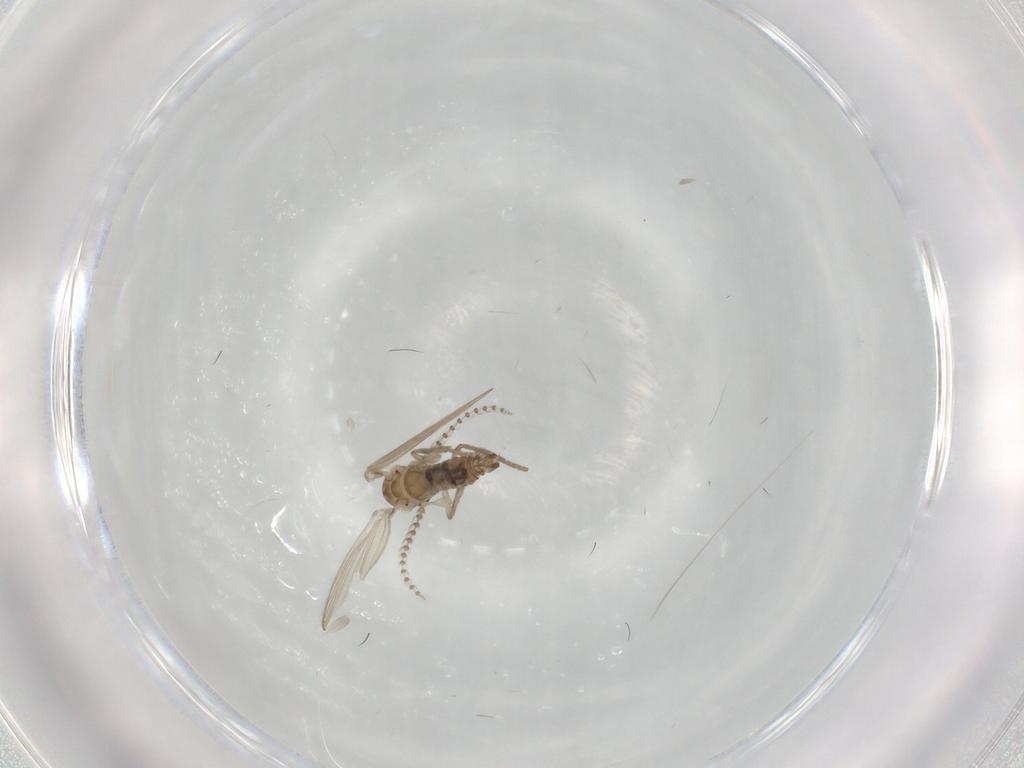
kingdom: Animalia
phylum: Arthropoda
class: Insecta
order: Diptera
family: Psychodidae
